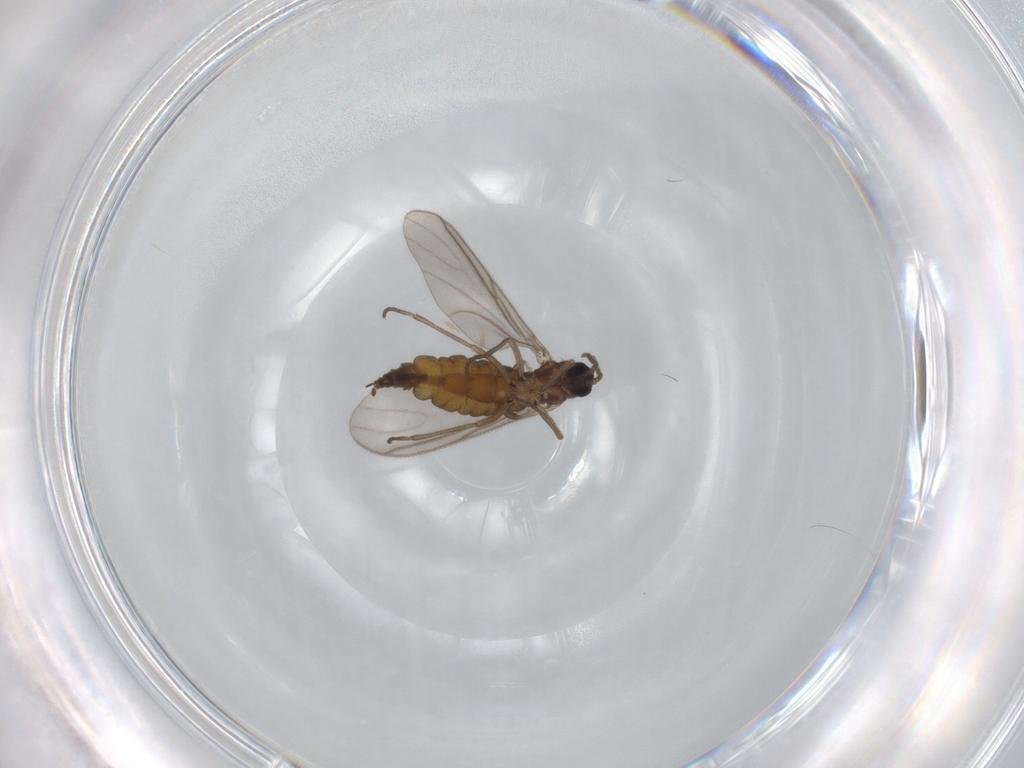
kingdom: Animalia
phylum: Arthropoda
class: Insecta
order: Diptera
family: Sciaridae
